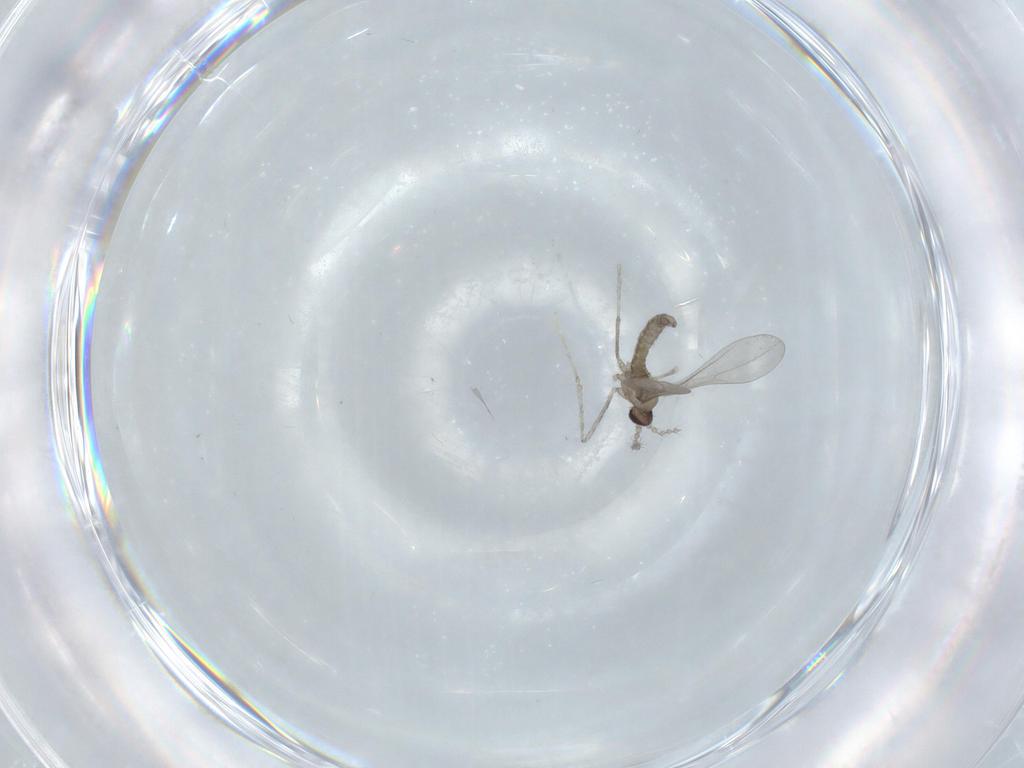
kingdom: Animalia
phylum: Arthropoda
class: Insecta
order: Diptera
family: Cecidomyiidae
